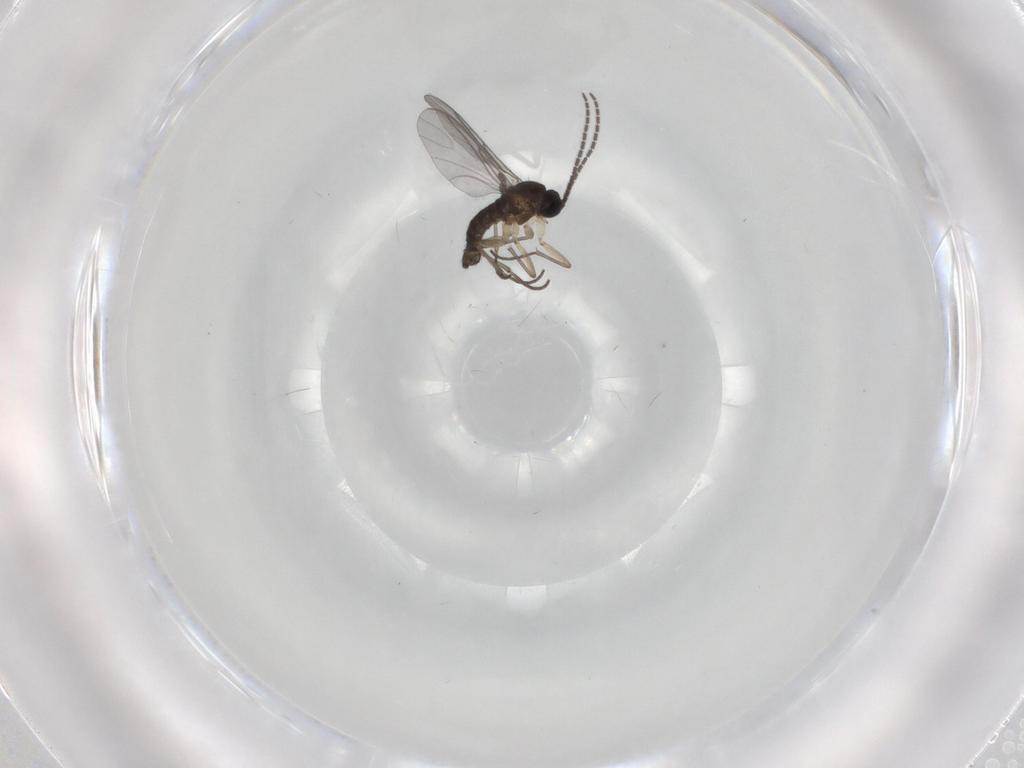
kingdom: Animalia
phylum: Arthropoda
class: Insecta
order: Diptera
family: Sciaridae
